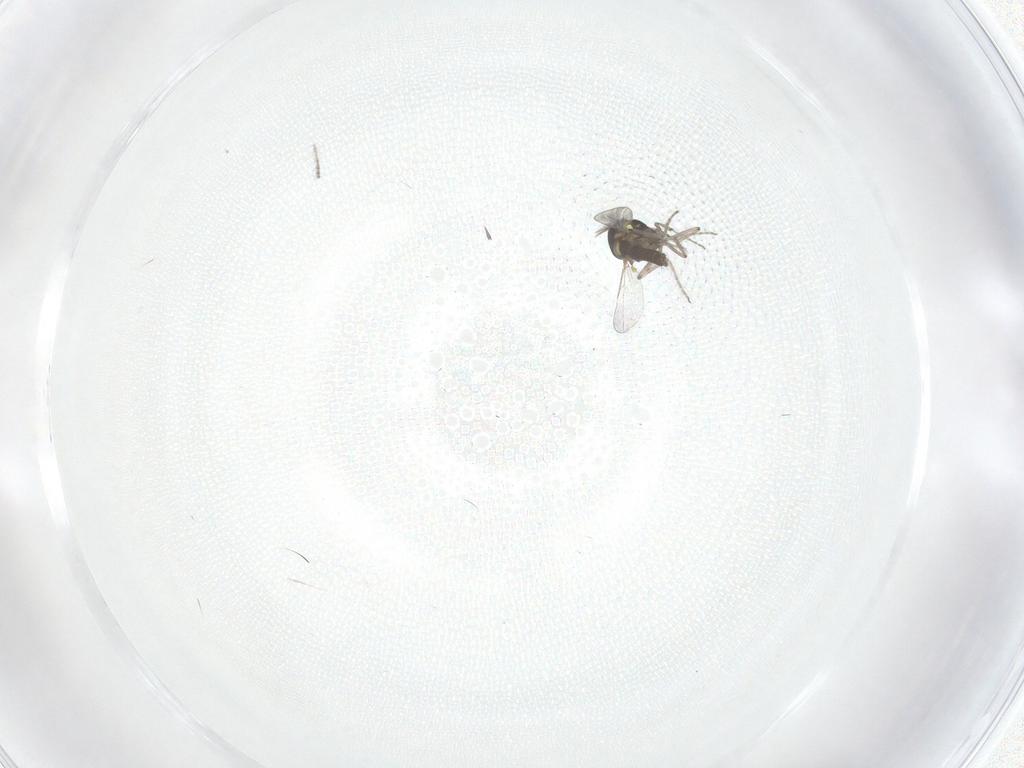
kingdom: Animalia
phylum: Arthropoda
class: Insecta
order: Diptera
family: Ceratopogonidae
